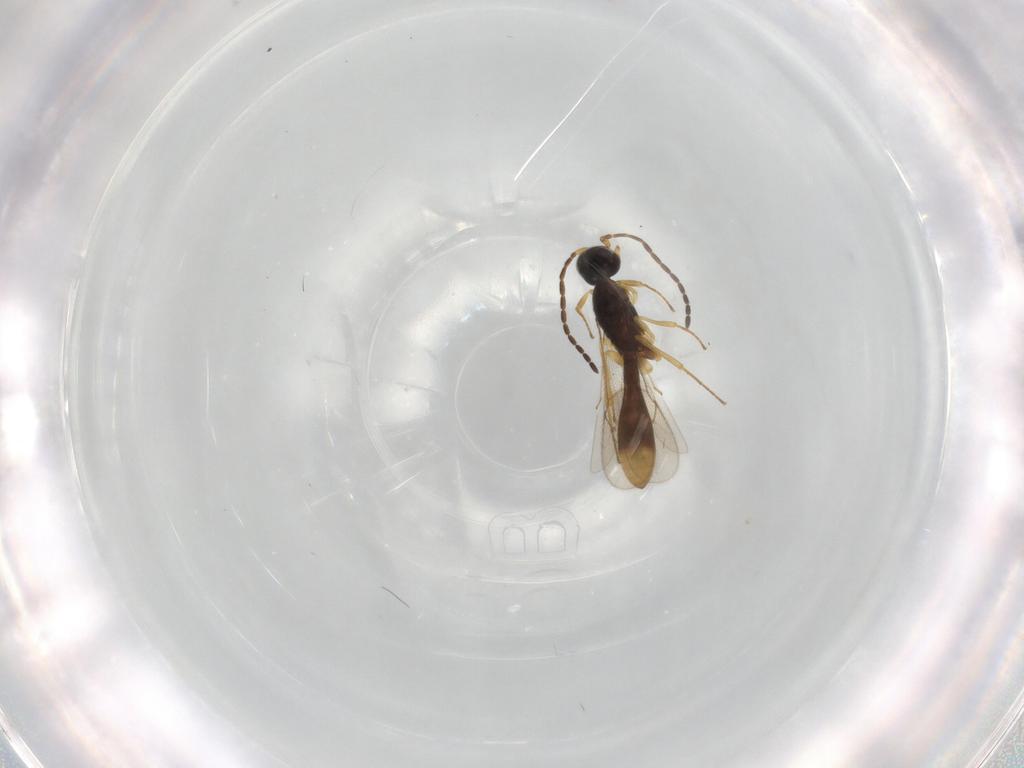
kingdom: Animalia
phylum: Arthropoda
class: Insecta
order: Hymenoptera
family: Scelionidae
